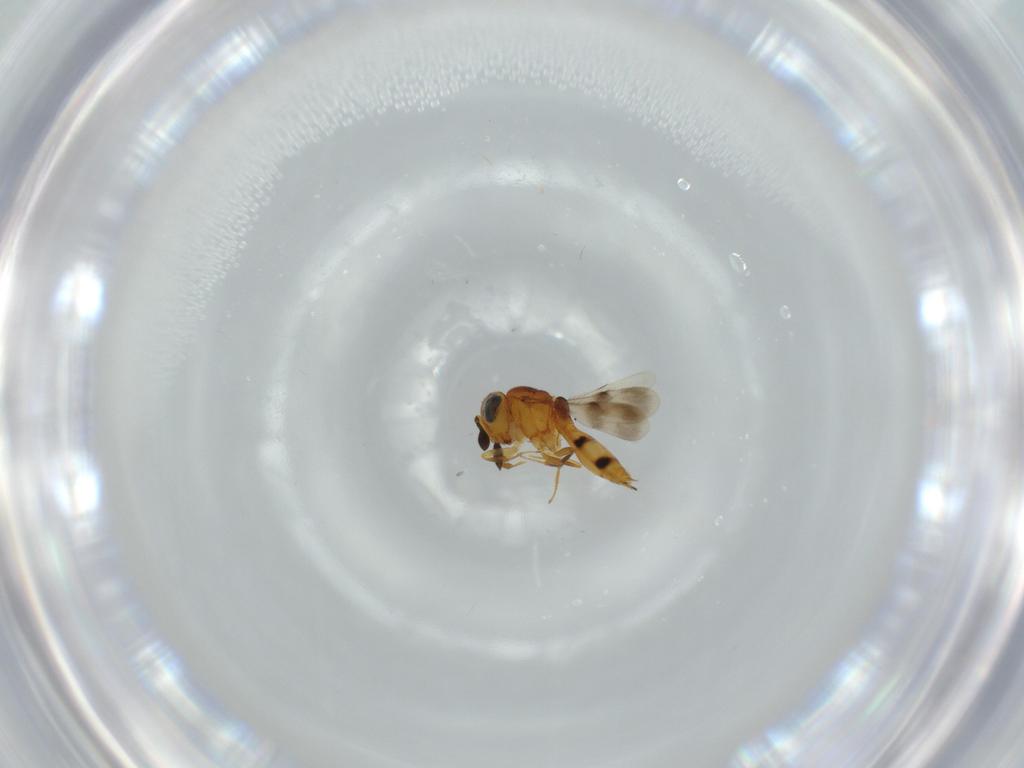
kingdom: Animalia
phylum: Arthropoda
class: Insecta
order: Hymenoptera
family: Scelionidae
